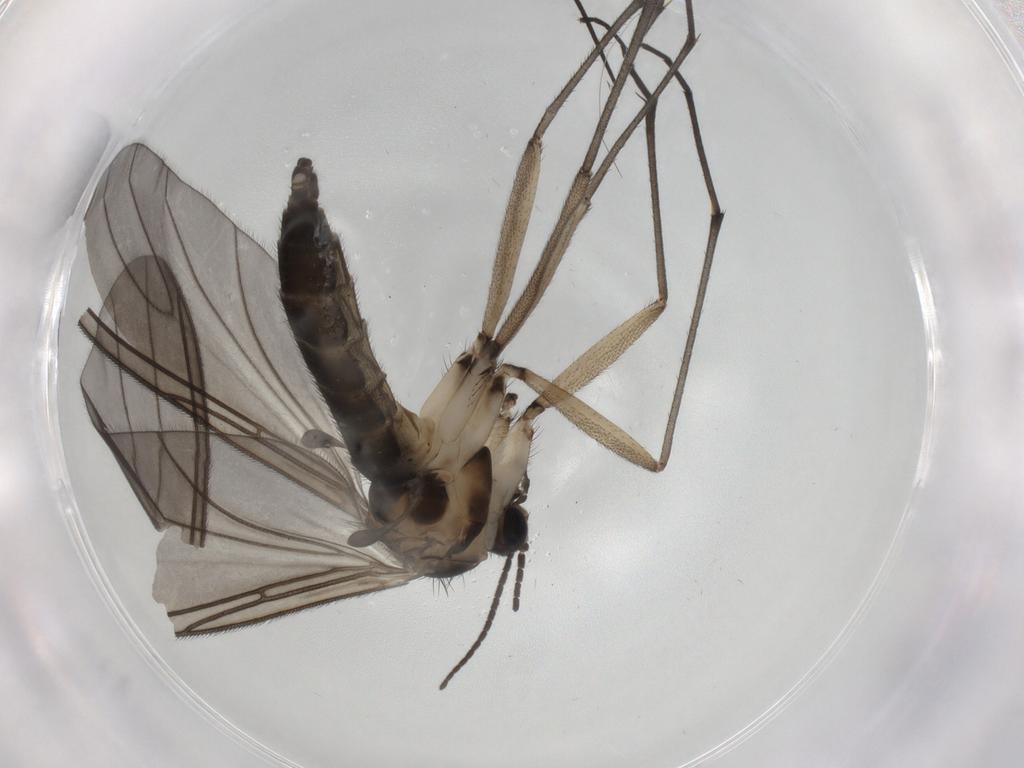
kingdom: Animalia
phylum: Arthropoda
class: Insecta
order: Diptera
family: Sciaridae
